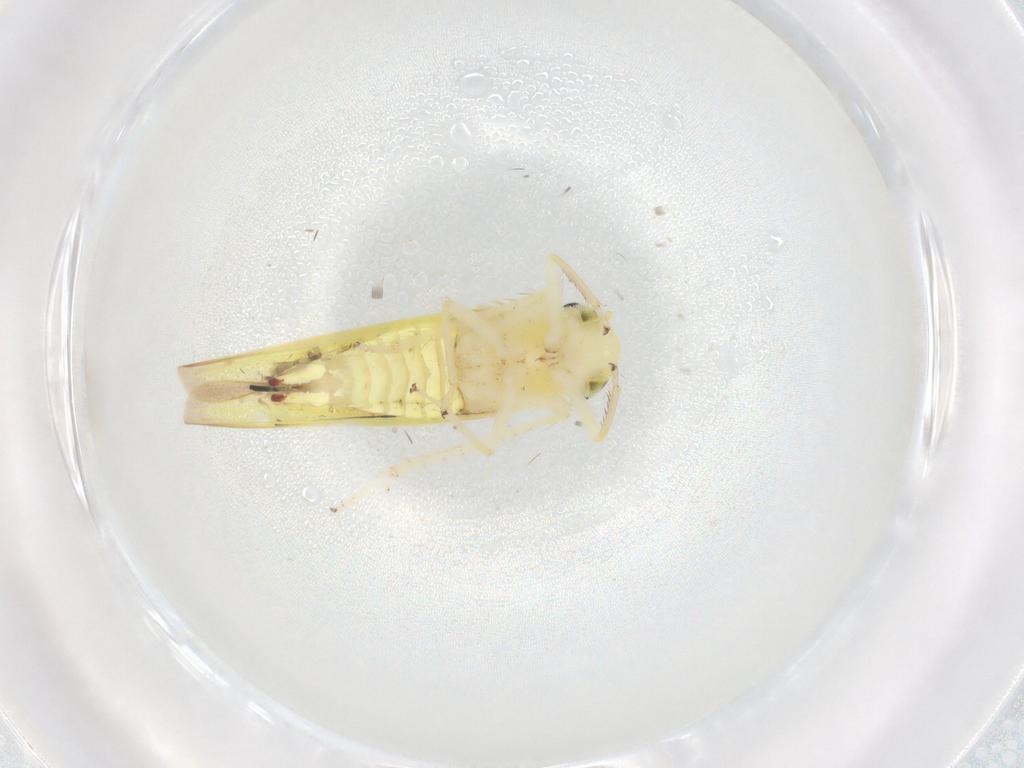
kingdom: Animalia
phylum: Arthropoda
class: Insecta
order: Hemiptera
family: Cicadellidae
